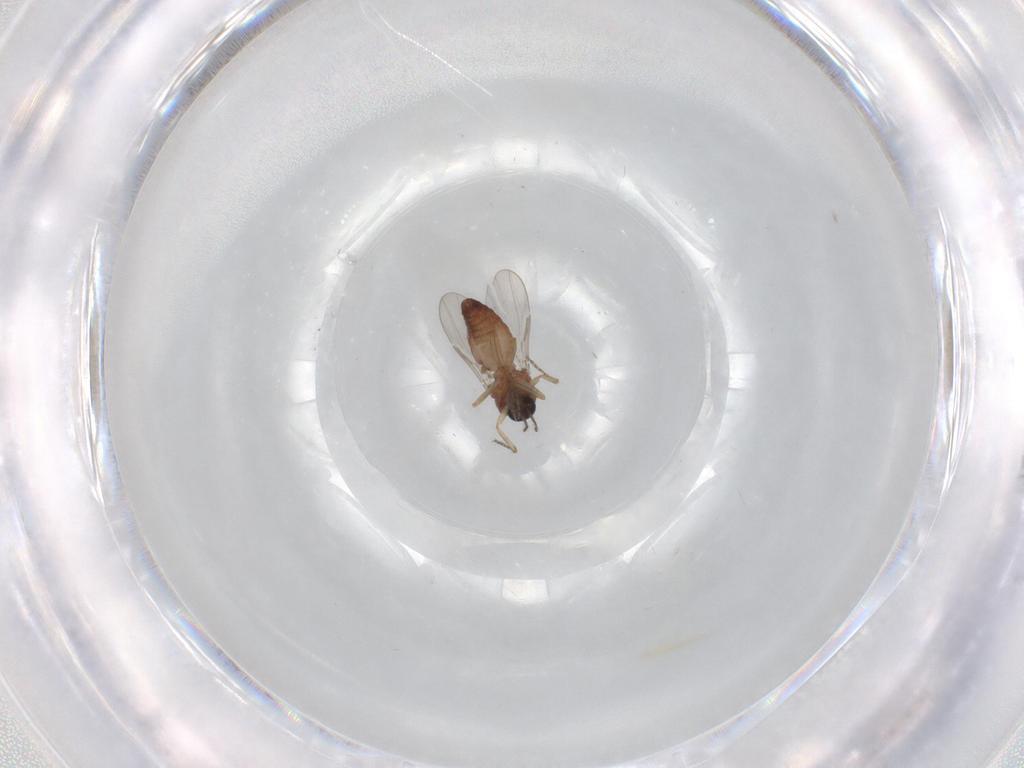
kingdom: Animalia
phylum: Arthropoda
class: Insecta
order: Diptera
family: Ceratopogonidae
